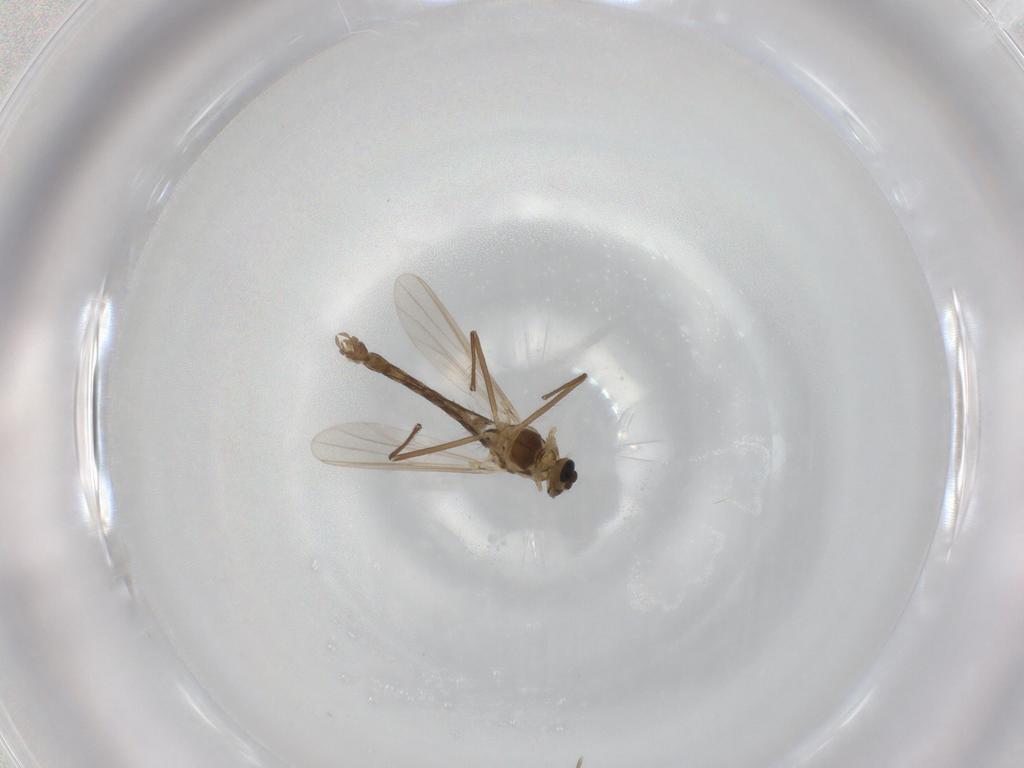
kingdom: Animalia
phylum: Arthropoda
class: Insecta
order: Diptera
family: Chironomidae
